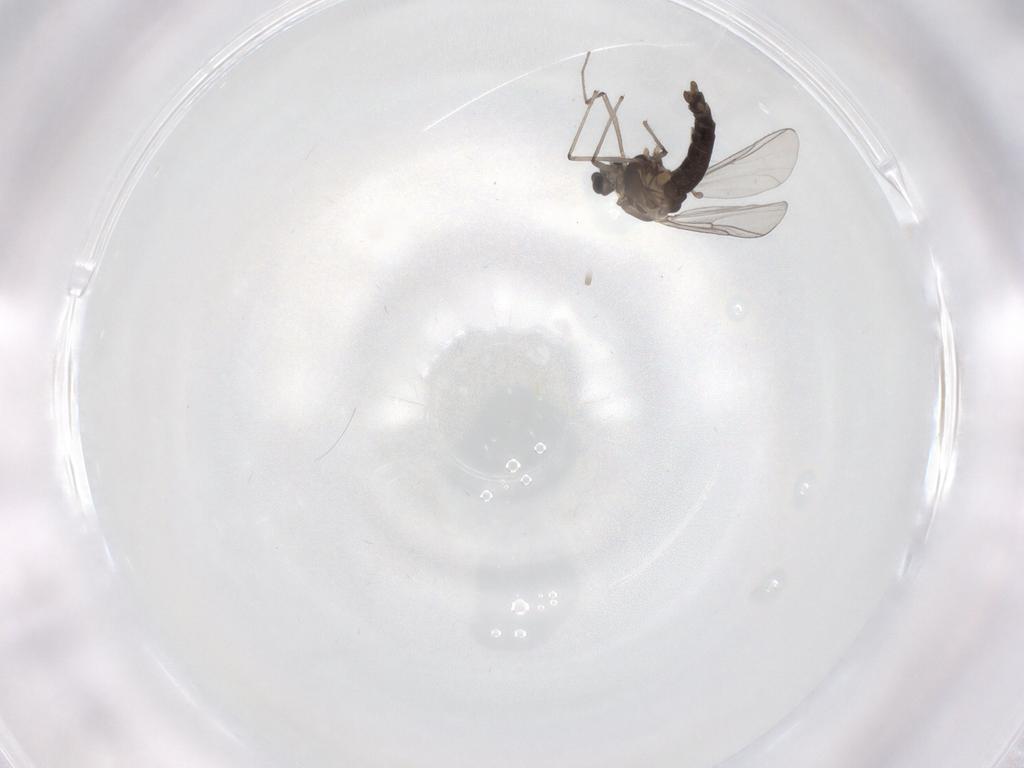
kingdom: Animalia
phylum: Arthropoda
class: Insecta
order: Diptera
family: Chironomidae
